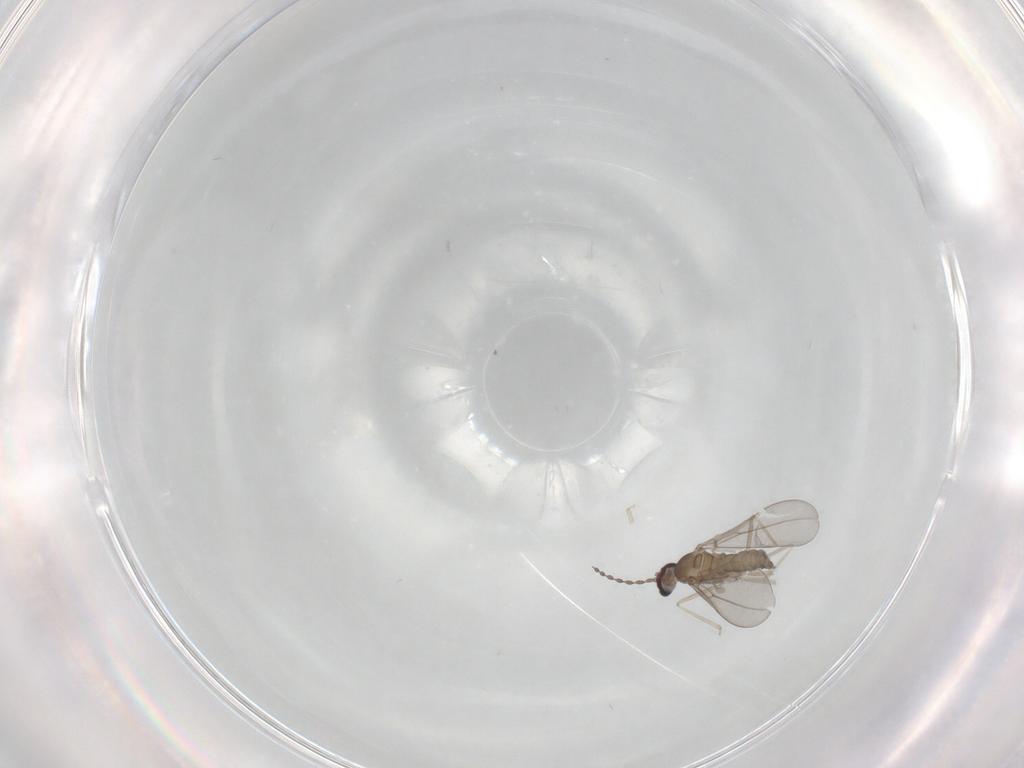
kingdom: Animalia
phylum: Arthropoda
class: Insecta
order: Diptera
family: Cecidomyiidae
